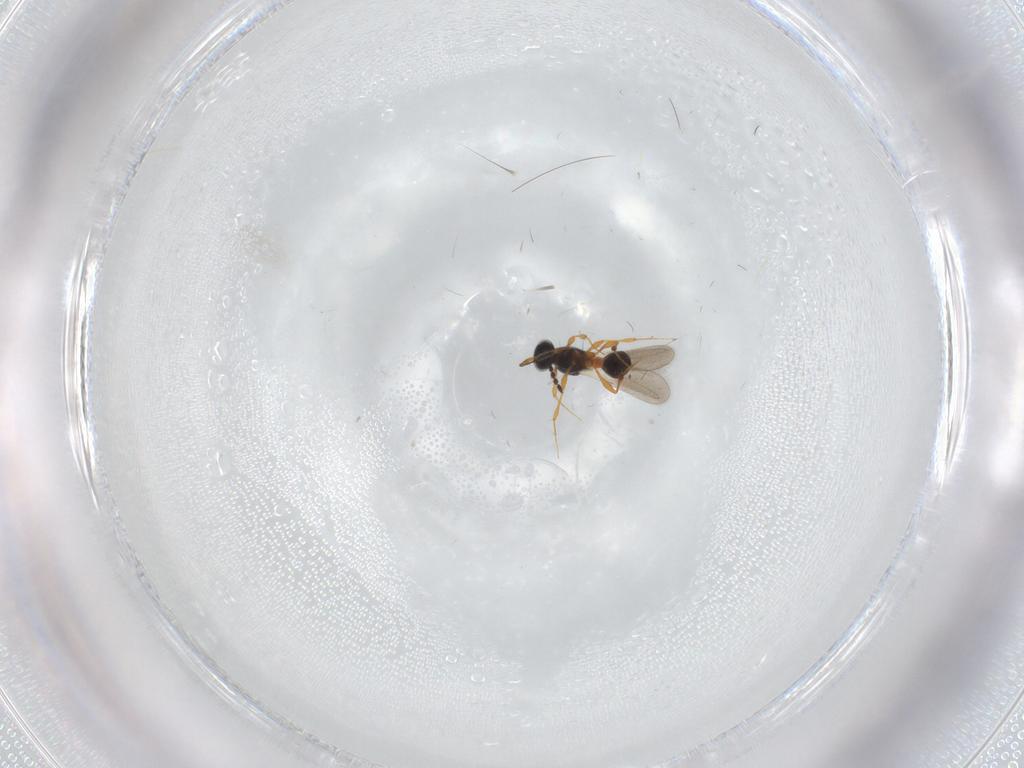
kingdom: Animalia
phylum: Arthropoda
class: Insecta
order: Hymenoptera
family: Platygastridae
